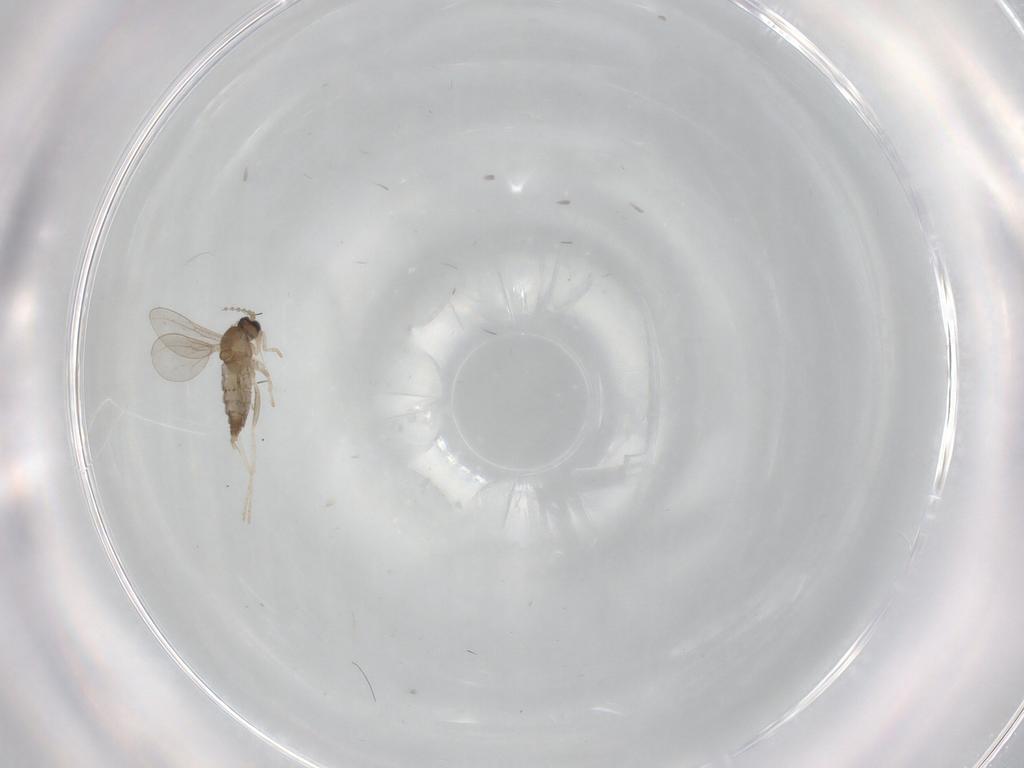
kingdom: Animalia
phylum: Arthropoda
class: Insecta
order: Diptera
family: Cecidomyiidae
